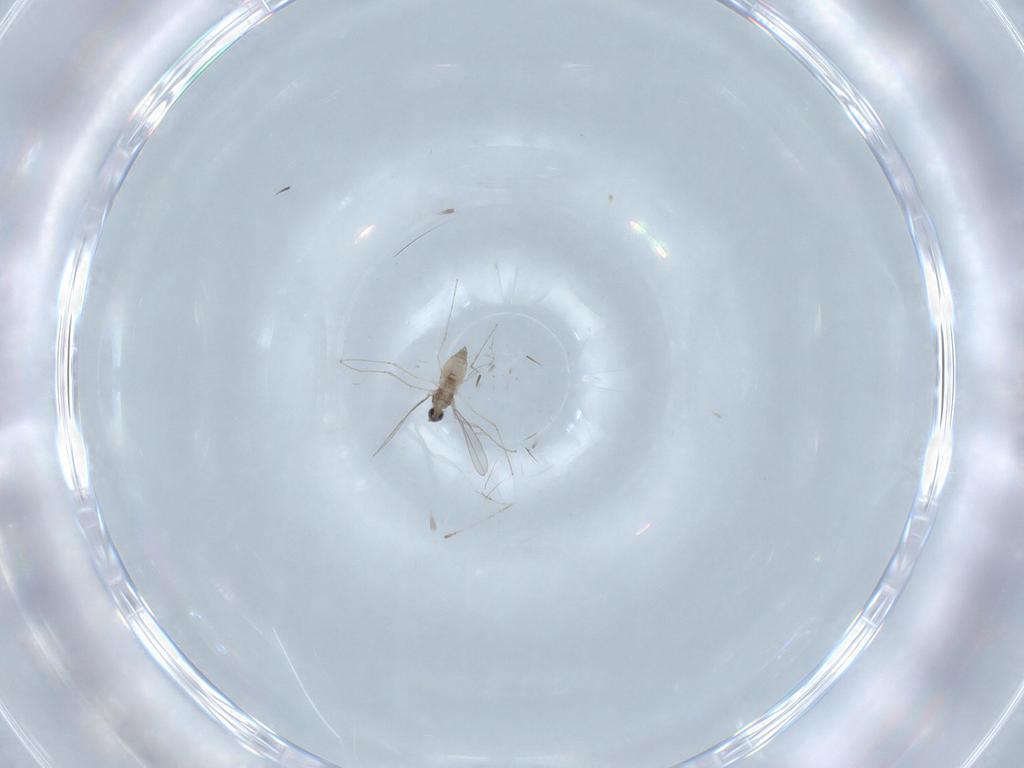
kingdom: Animalia
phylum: Arthropoda
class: Insecta
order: Diptera
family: Cecidomyiidae
